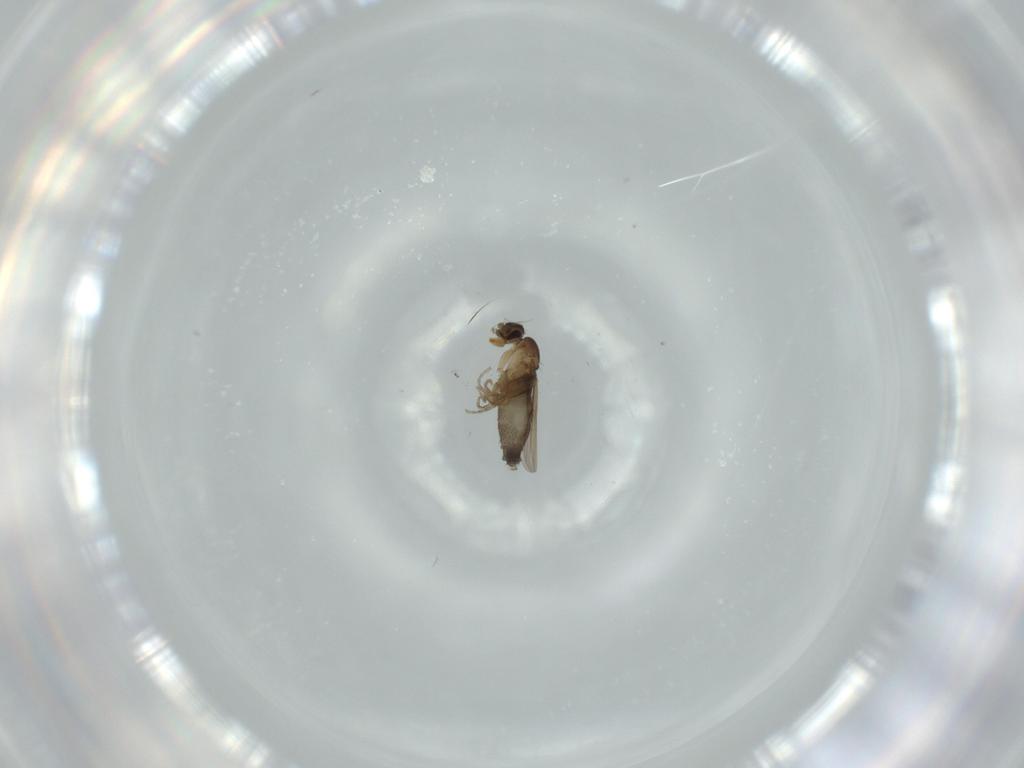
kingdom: Animalia
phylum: Arthropoda
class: Insecta
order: Diptera
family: Phoridae
